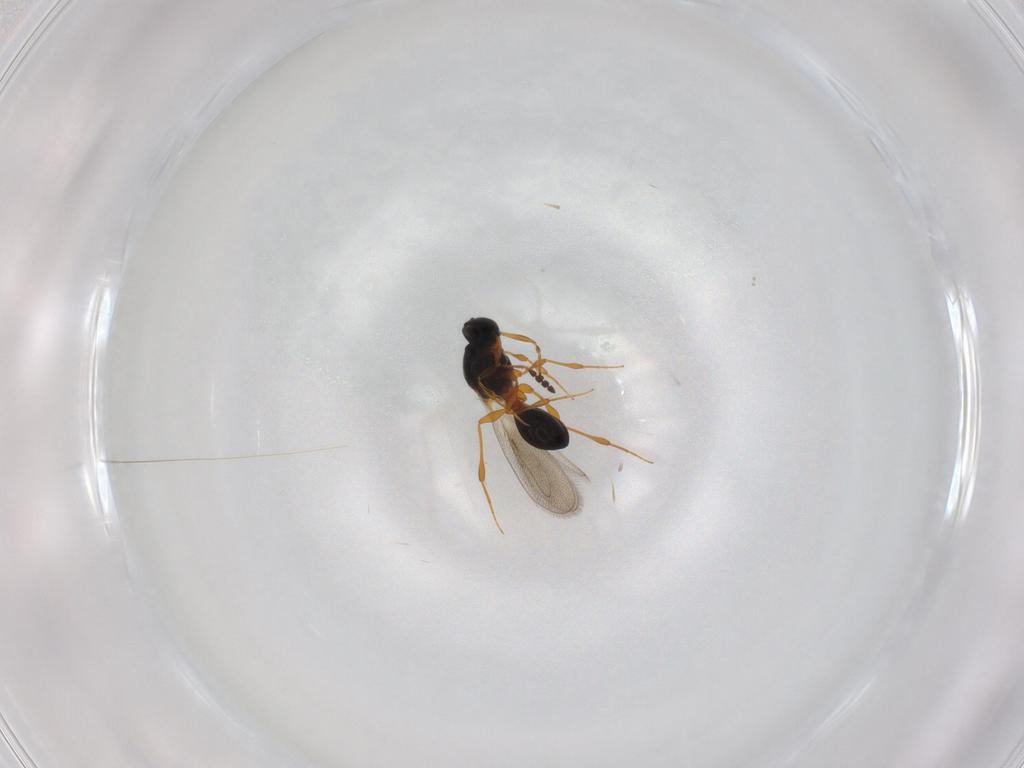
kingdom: Animalia
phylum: Arthropoda
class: Insecta
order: Hymenoptera
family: Platygastridae
